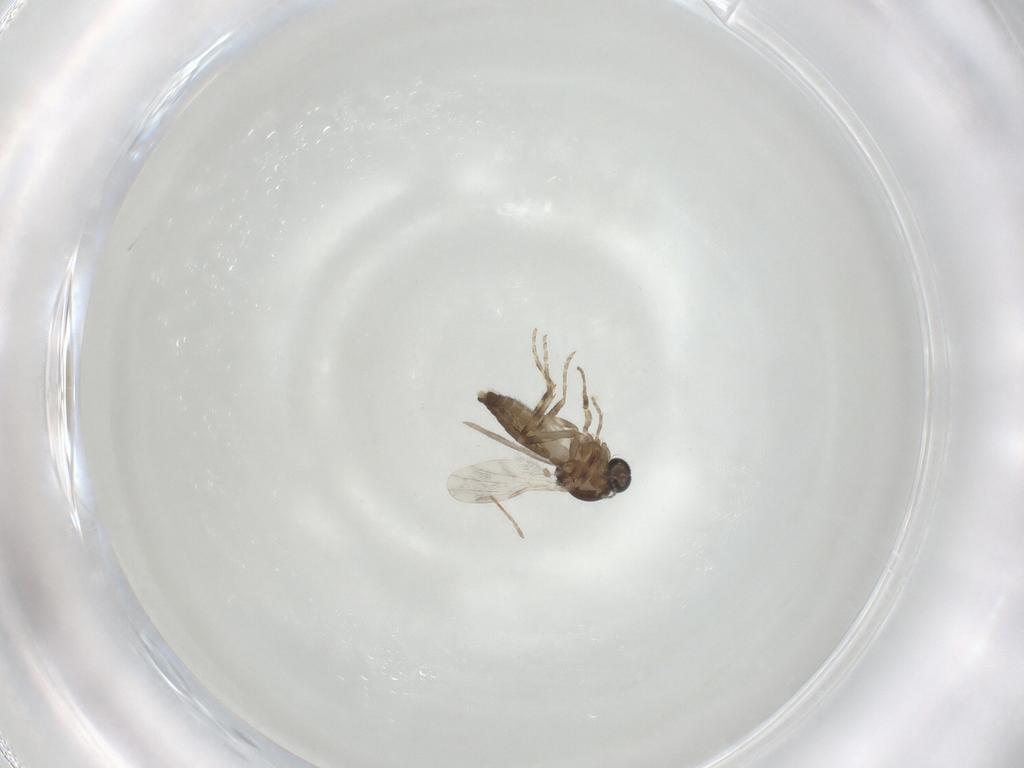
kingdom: Animalia
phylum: Arthropoda
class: Insecta
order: Diptera
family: Ceratopogonidae
